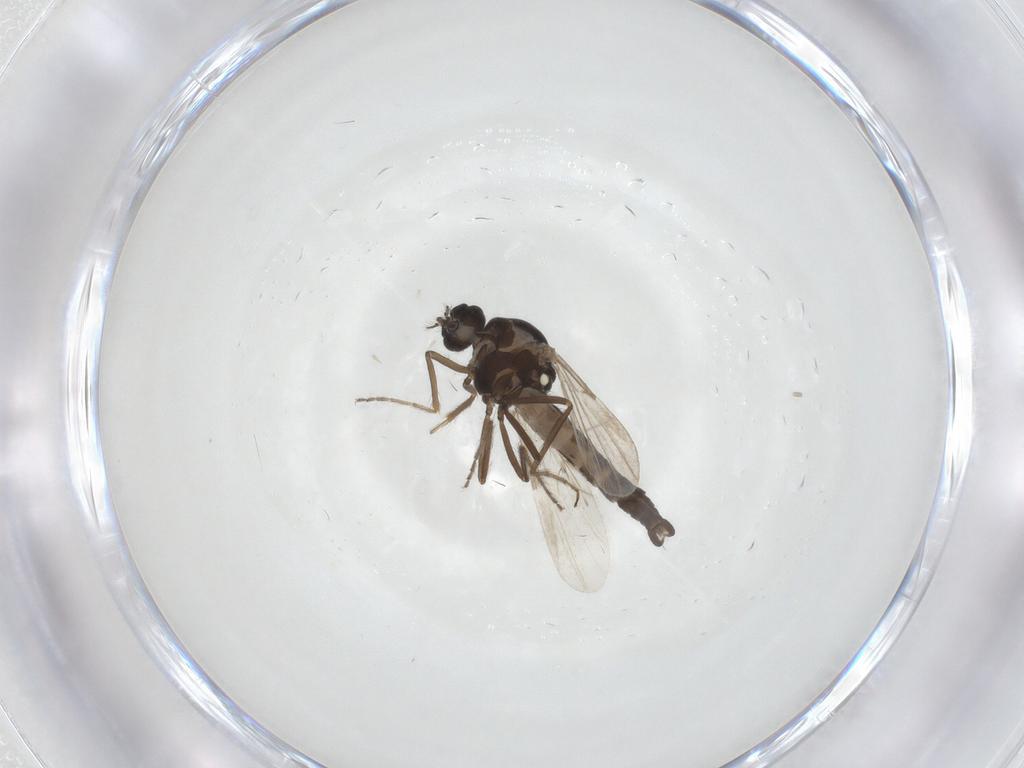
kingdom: Animalia
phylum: Arthropoda
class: Insecta
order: Diptera
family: Ceratopogonidae
